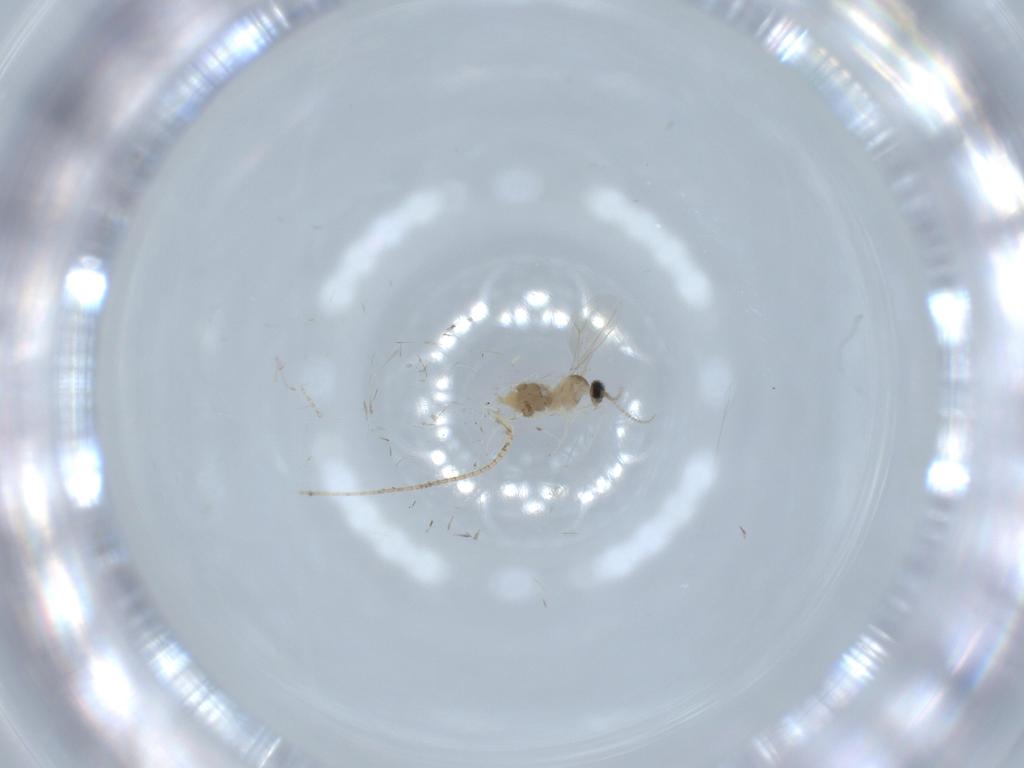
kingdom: Animalia
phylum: Arthropoda
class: Insecta
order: Diptera
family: Cecidomyiidae
